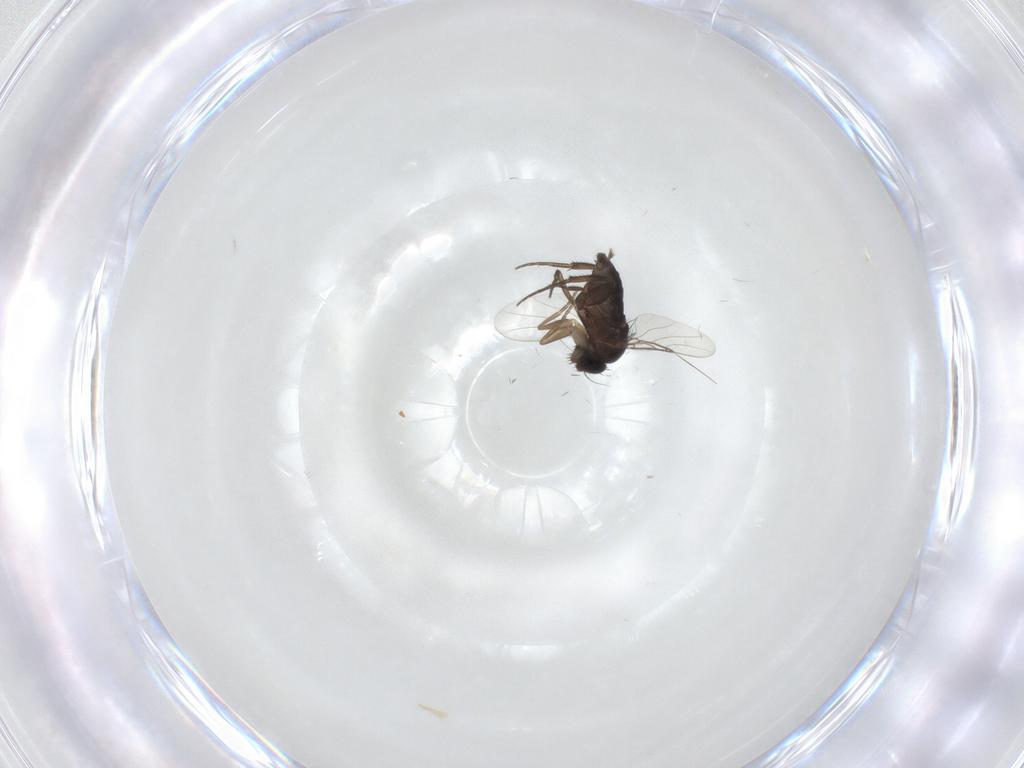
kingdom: Animalia
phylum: Arthropoda
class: Insecta
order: Diptera
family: Phoridae
